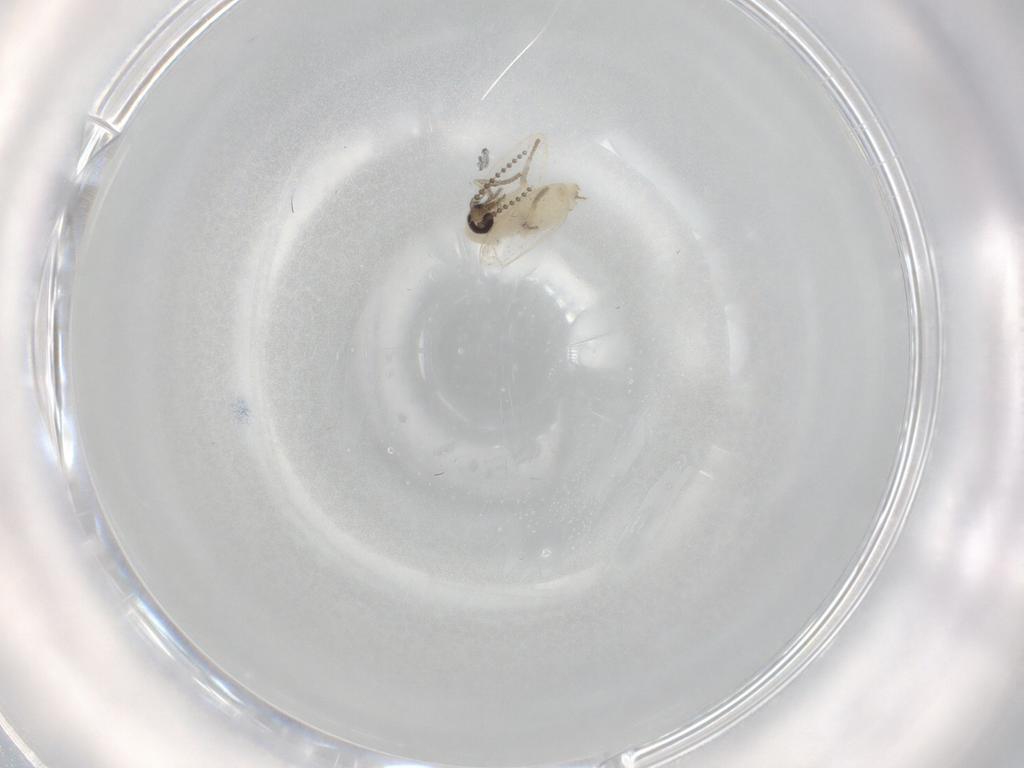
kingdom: Animalia
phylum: Arthropoda
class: Insecta
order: Diptera
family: Psychodidae
